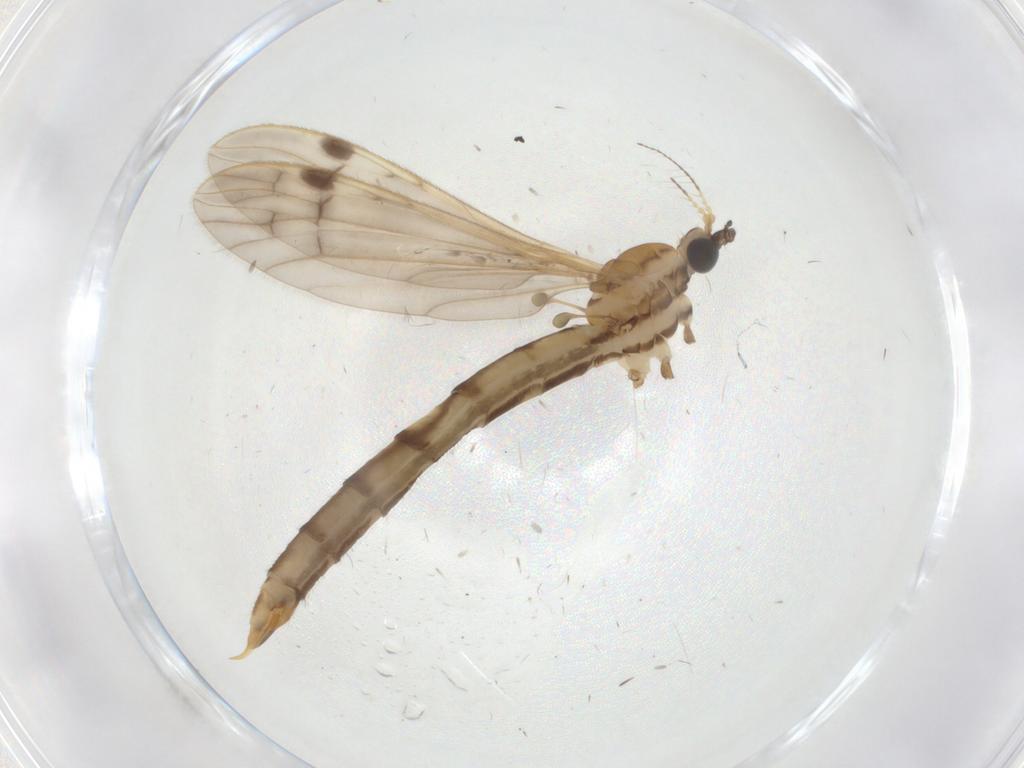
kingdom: Animalia
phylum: Arthropoda
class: Insecta
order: Diptera
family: Limoniidae
